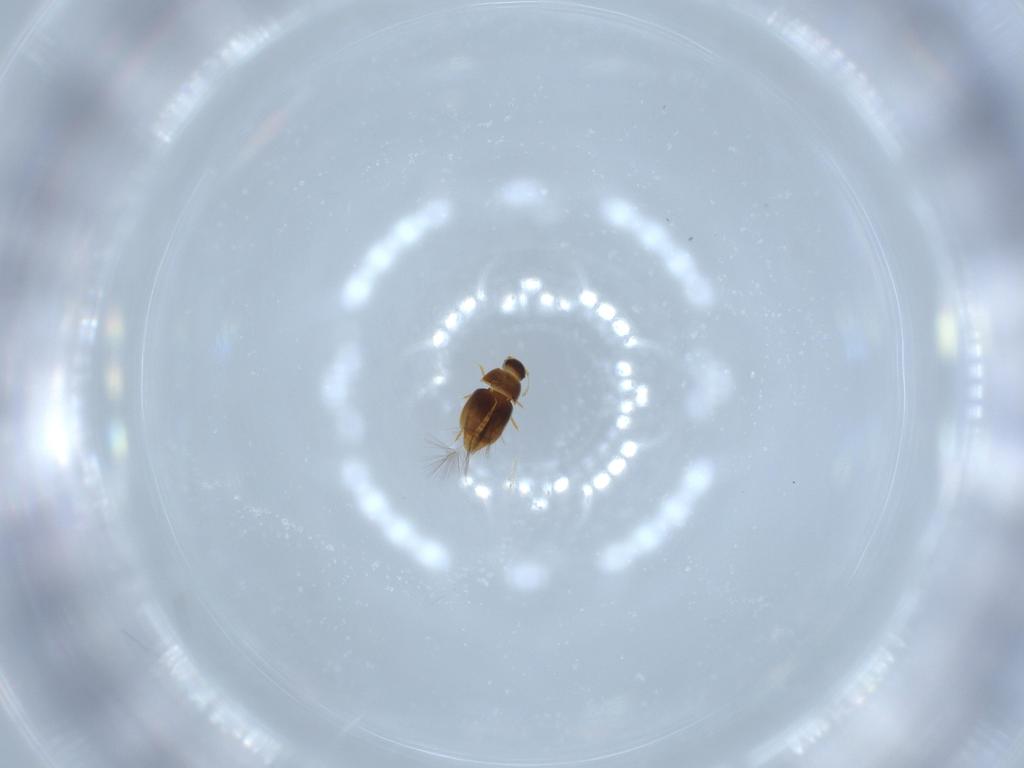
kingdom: Animalia
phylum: Arthropoda
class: Insecta
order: Coleoptera
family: Ptiliidae
